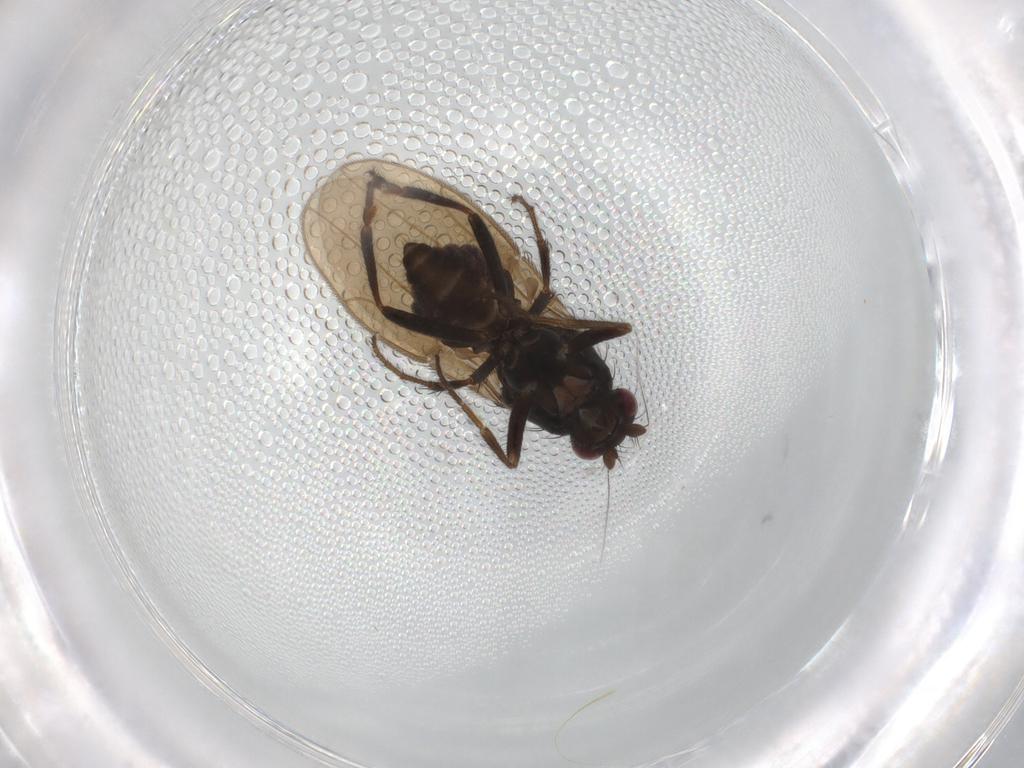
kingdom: Animalia
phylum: Arthropoda
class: Insecta
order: Diptera
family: Sphaeroceridae
